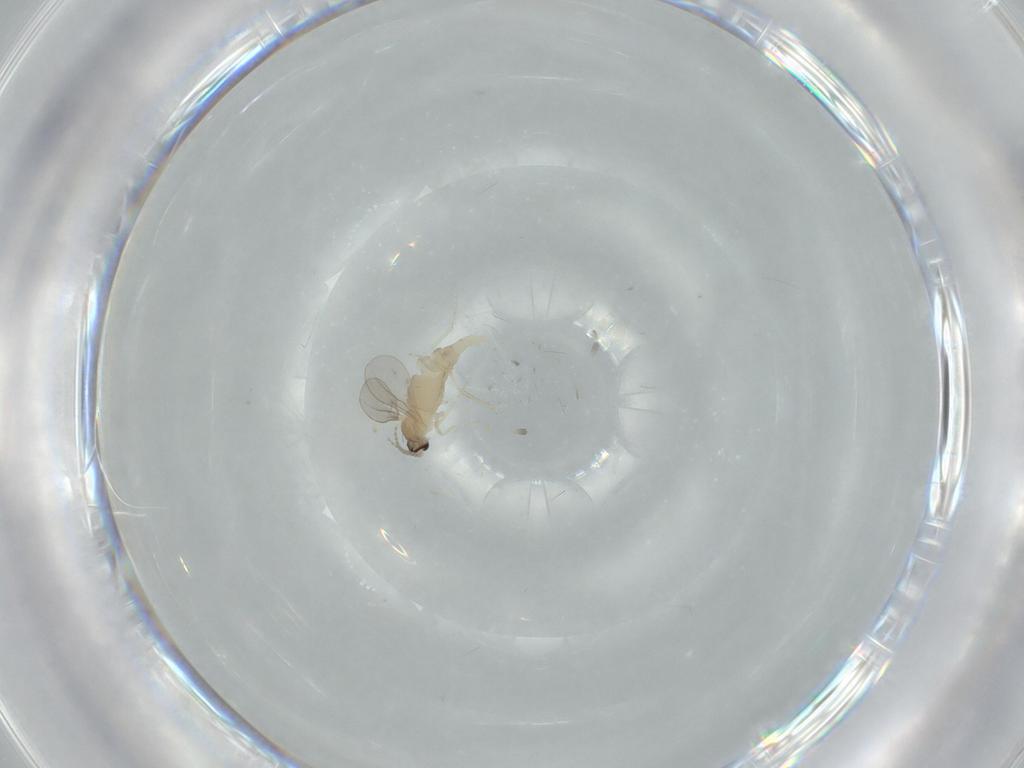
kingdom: Animalia
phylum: Arthropoda
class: Insecta
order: Diptera
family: Cecidomyiidae
